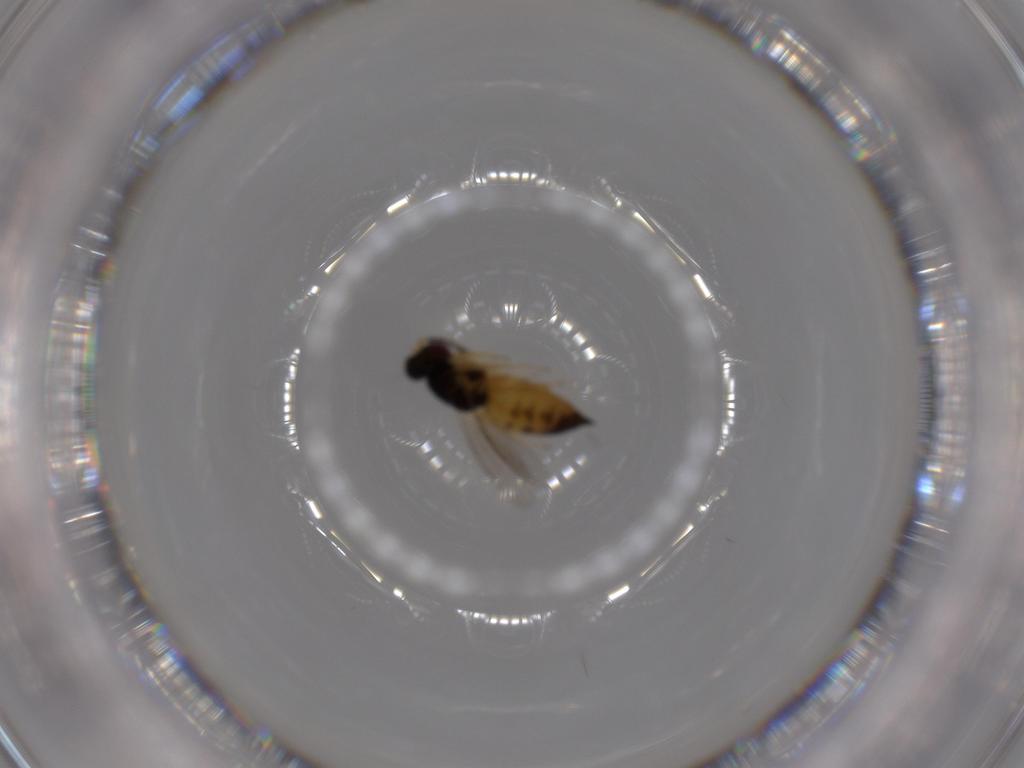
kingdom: Animalia
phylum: Arthropoda
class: Insecta
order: Hymenoptera
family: Eulophidae
